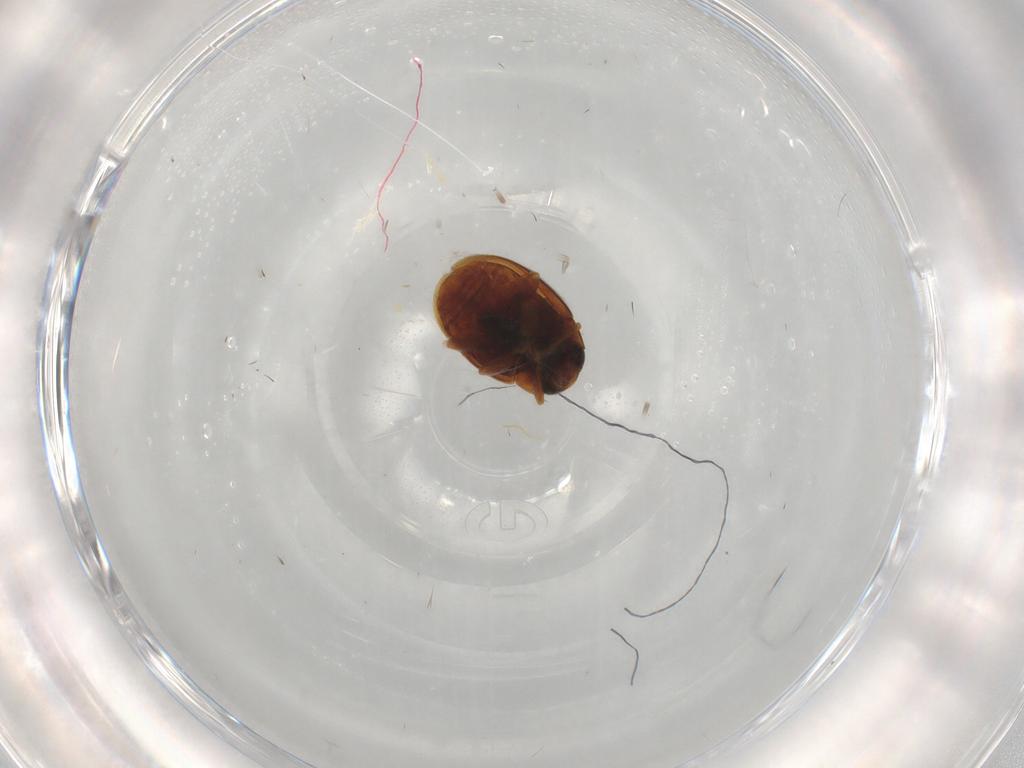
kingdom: Animalia
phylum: Arthropoda
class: Insecta
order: Coleoptera
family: Coccinellidae
